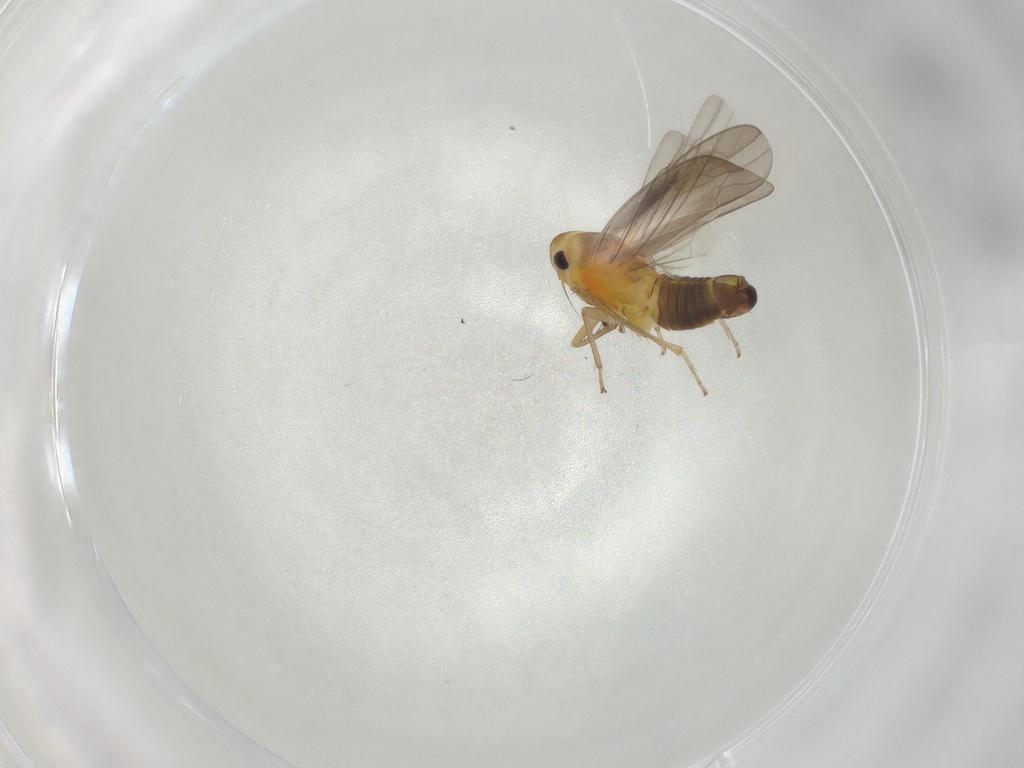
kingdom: Animalia
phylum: Arthropoda
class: Insecta
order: Hemiptera
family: Cicadellidae
